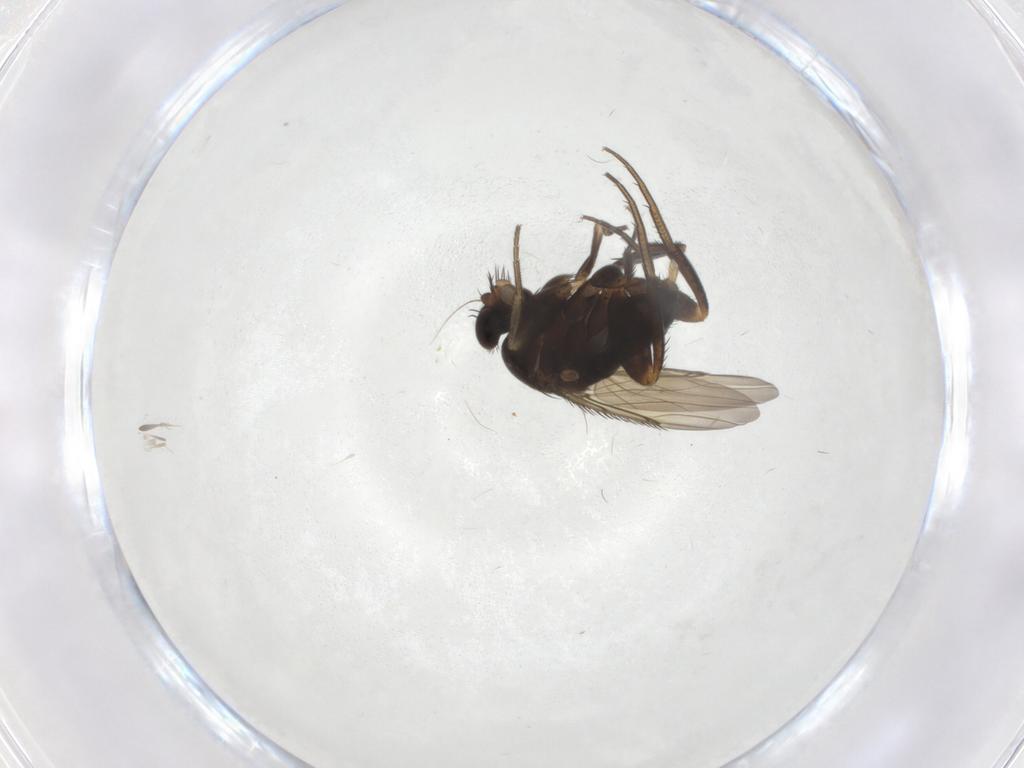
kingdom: Animalia
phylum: Arthropoda
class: Insecta
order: Diptera
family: Phoridae
